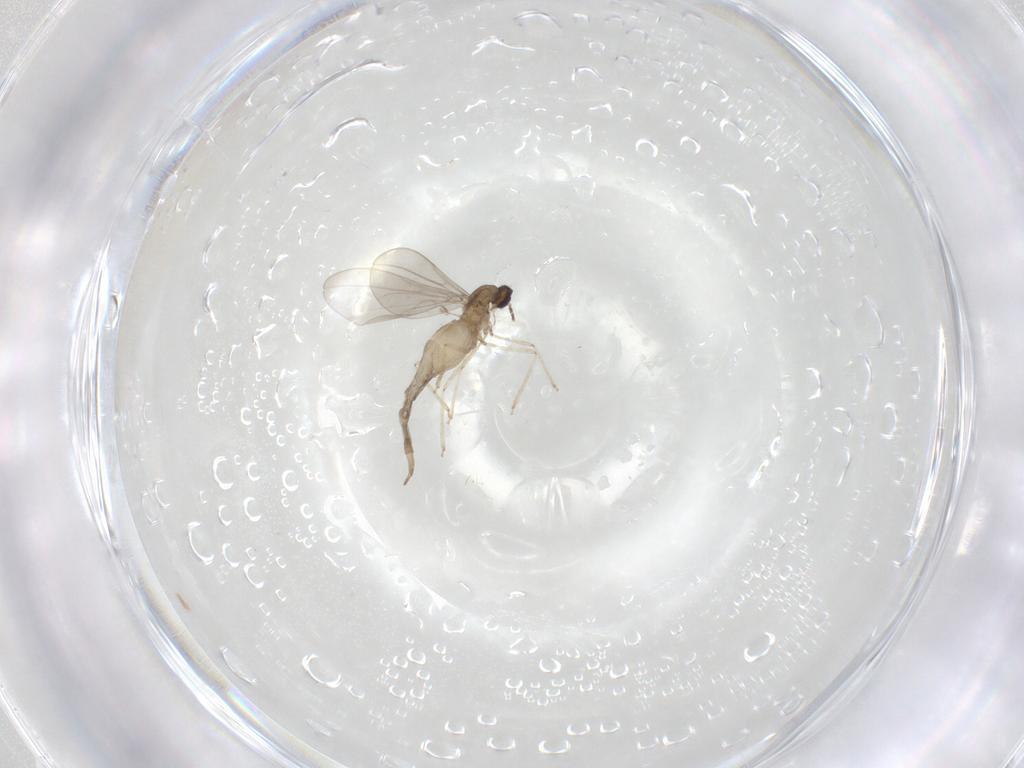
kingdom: Animalia
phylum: Arthropoda
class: Insecta
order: Diptera
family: Cecidomyiidae
